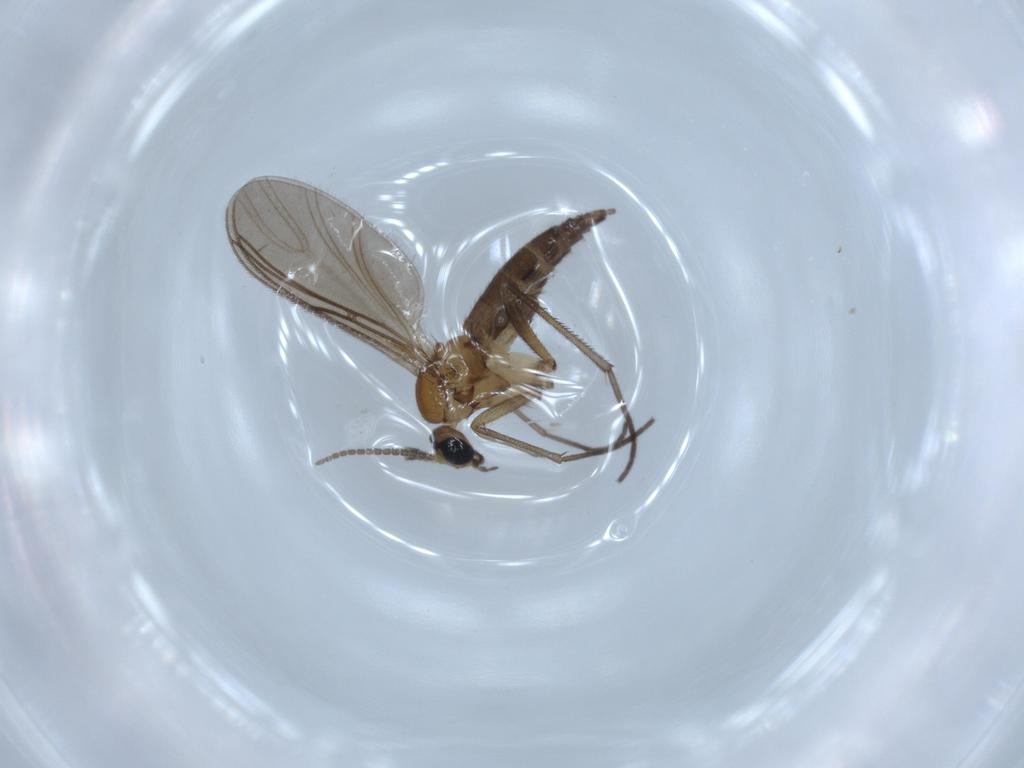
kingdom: Animalia
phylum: Arthropoda
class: Insecta
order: Diptera
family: Sciaridae
